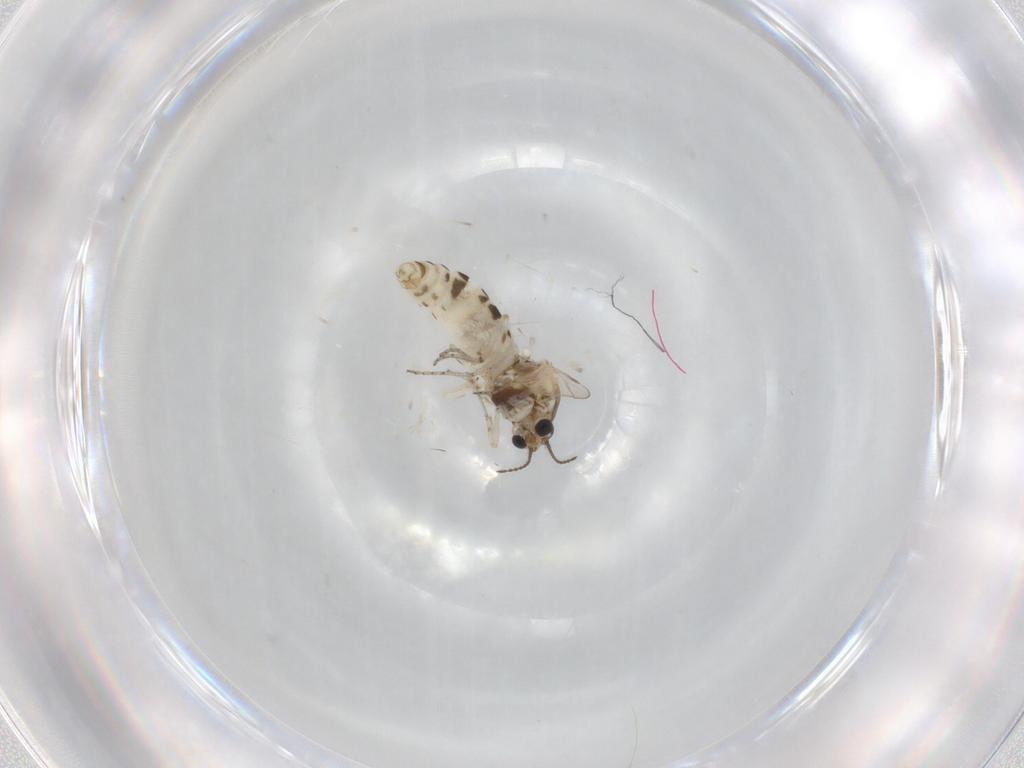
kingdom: Animalia
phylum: Arthropoda
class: Insecta
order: Diptera
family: Ceratopogonidae
